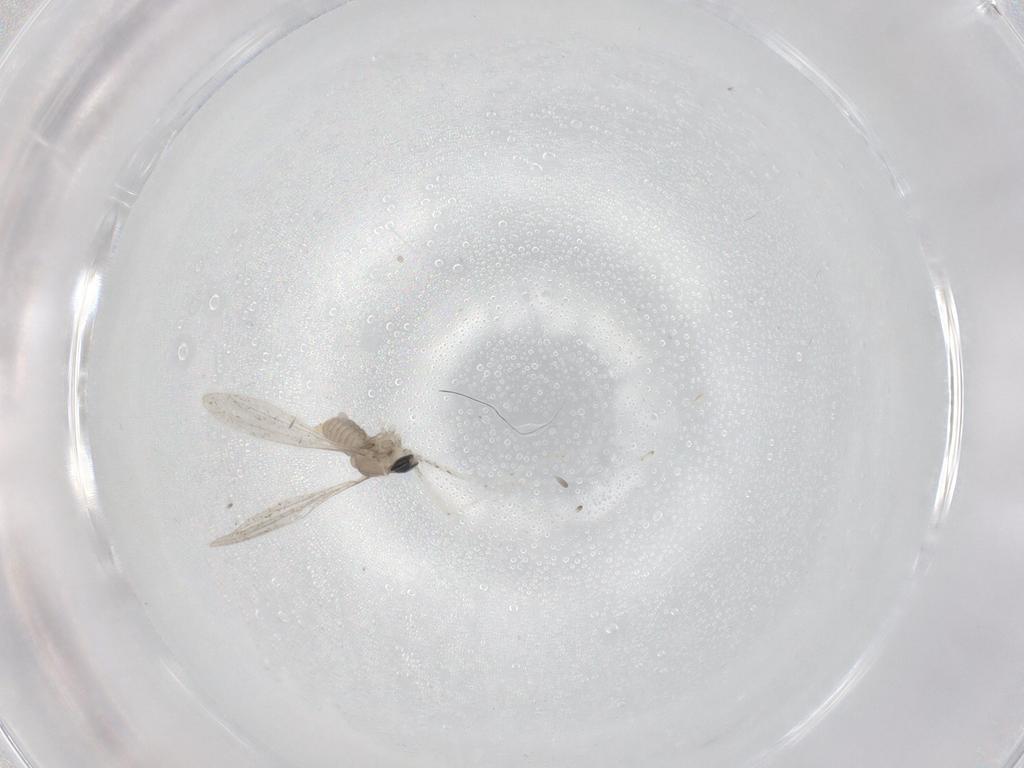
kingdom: Animalia
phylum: Arthropoda
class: Insecta
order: Diptera
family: Cecidomyiidae
